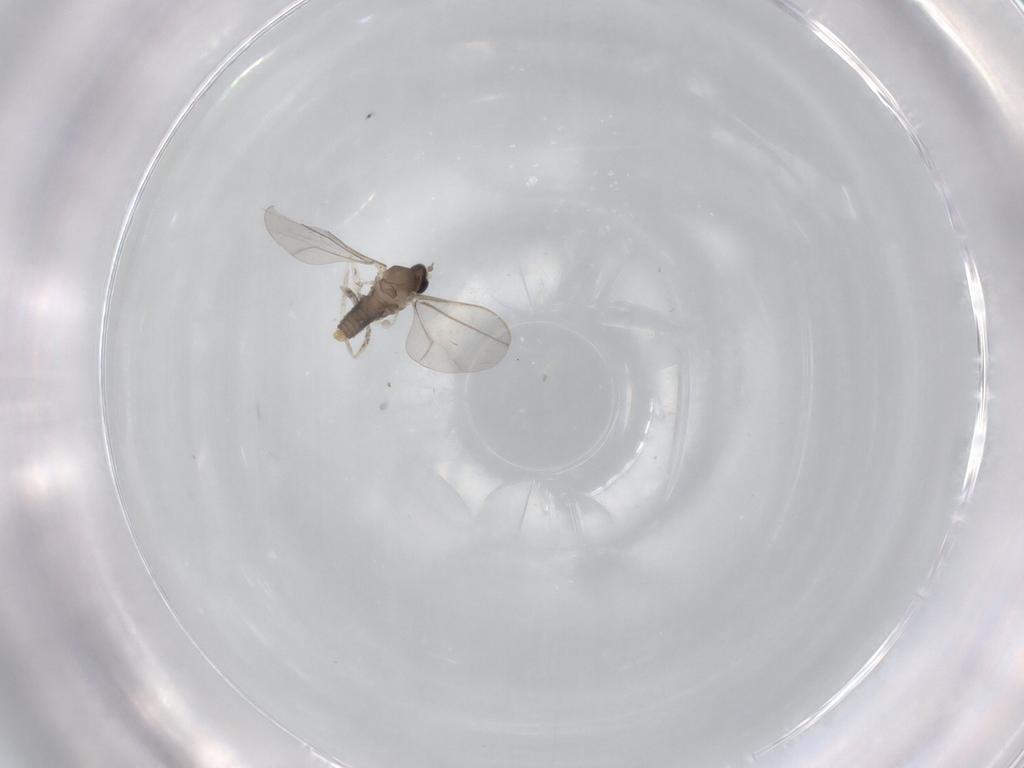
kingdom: Animalia
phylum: Arthropoda
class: Insecta
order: Diptera
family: Cecidomyiidae
